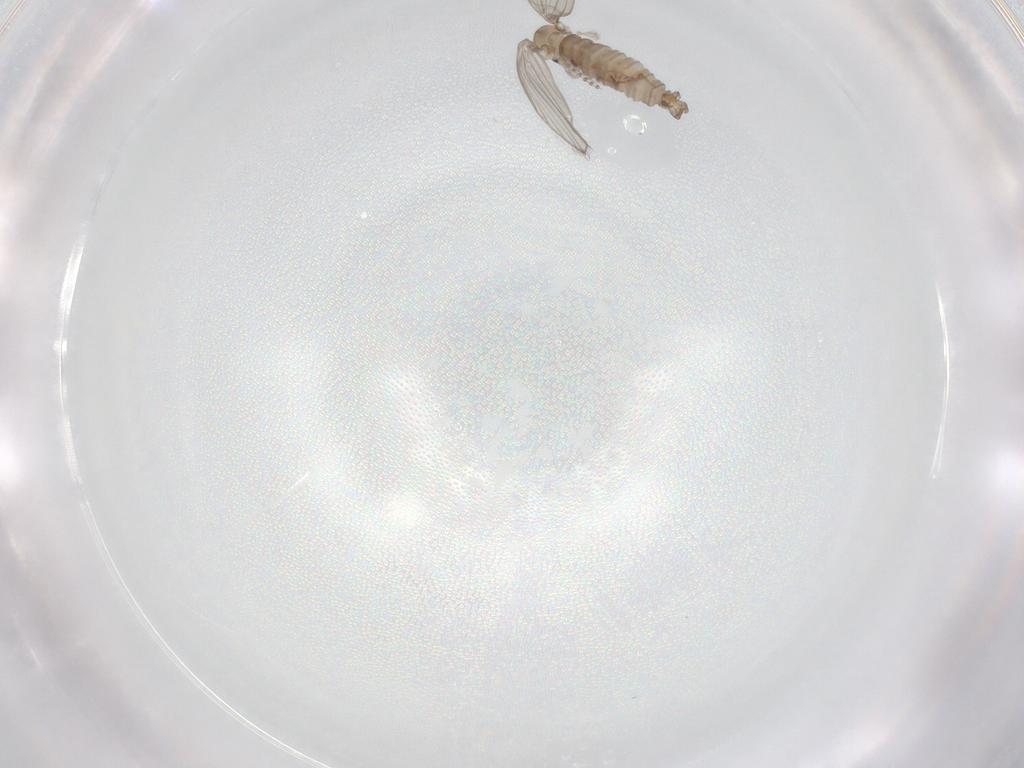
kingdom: Animalia
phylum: Arthropoda
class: Insecta
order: Diptera
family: Psychodidae
